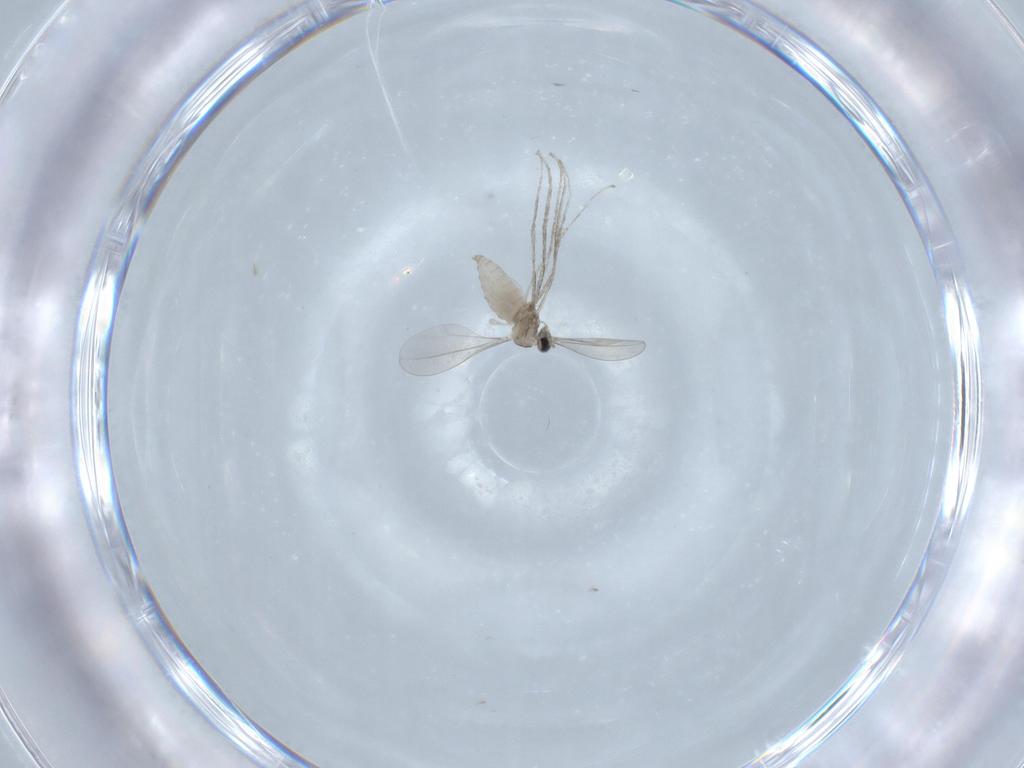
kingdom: Animalia
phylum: Arthropoda
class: Insecta
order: Diptera
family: Cecidomyiidae
